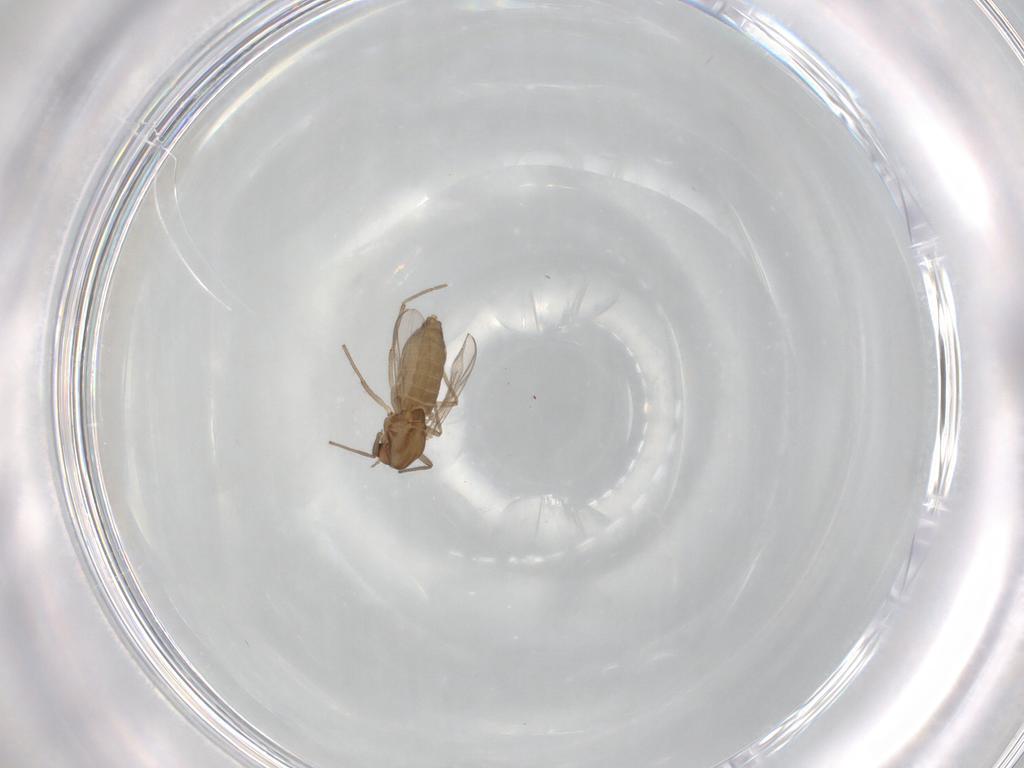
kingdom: Animalia
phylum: Arthropoda
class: Insecta
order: Diptera
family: Chironomidae
